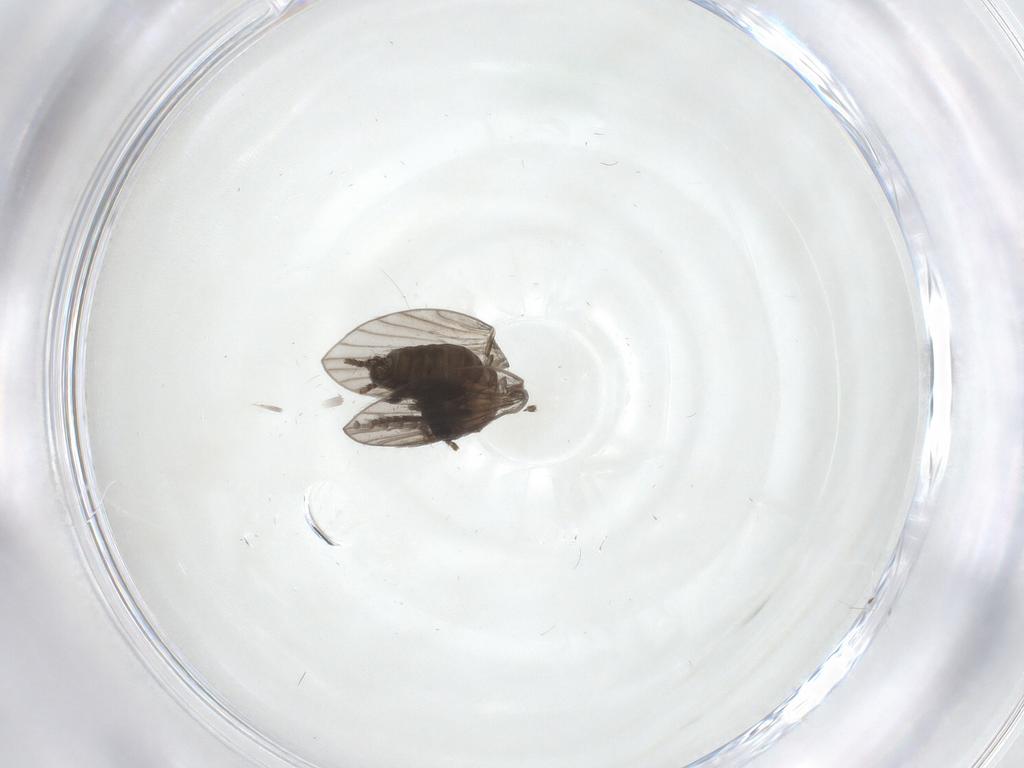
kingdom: Animalia
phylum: Arthropoda
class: Insecta
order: Diptera
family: Psychodidae
